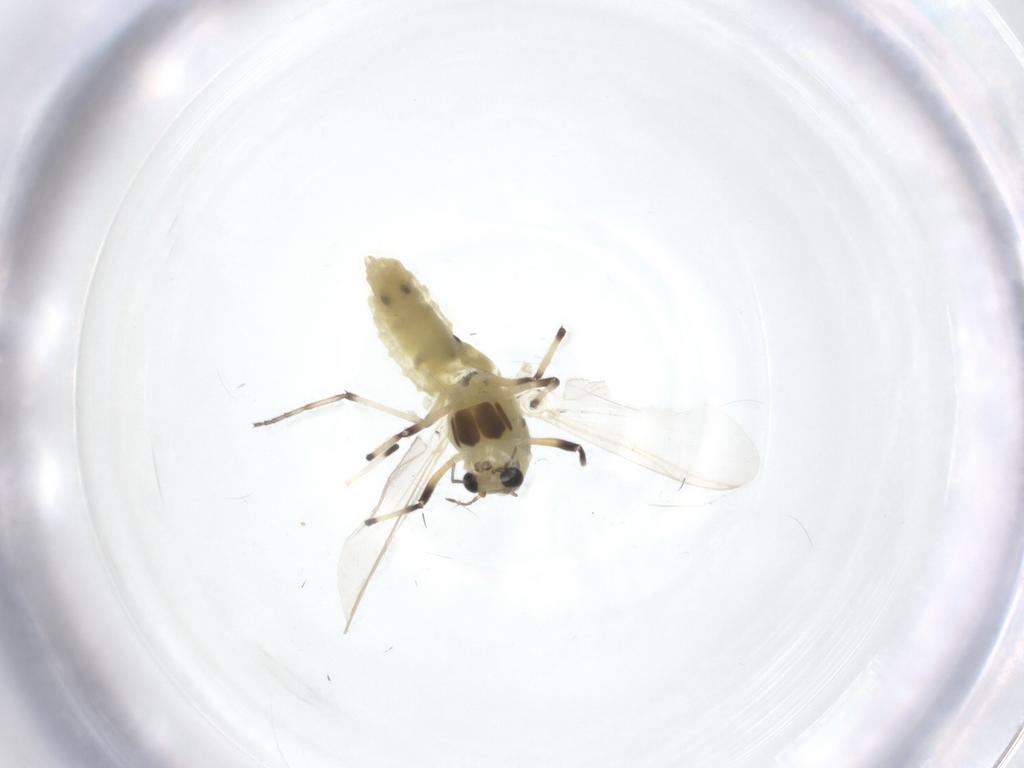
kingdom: Animalia
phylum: Arthropoda
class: Insecta
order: Diptera
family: Chironomidae
